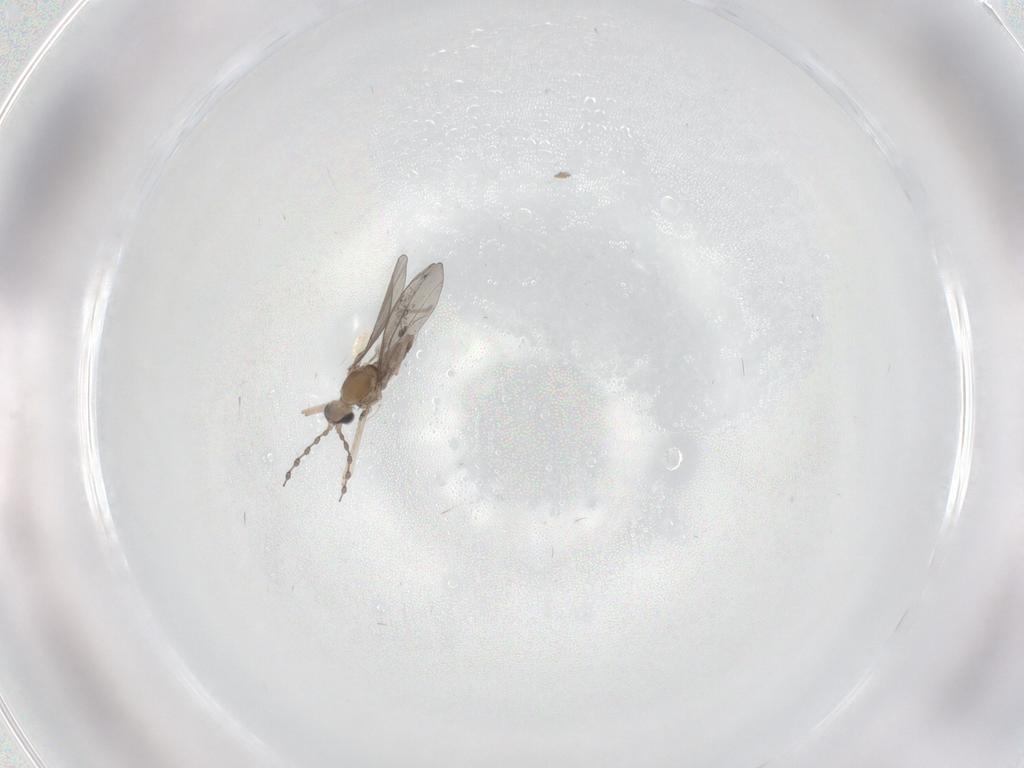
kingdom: Animalia
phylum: Arthropoda
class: Insecta
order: Diptera
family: Cecidomyiidae
